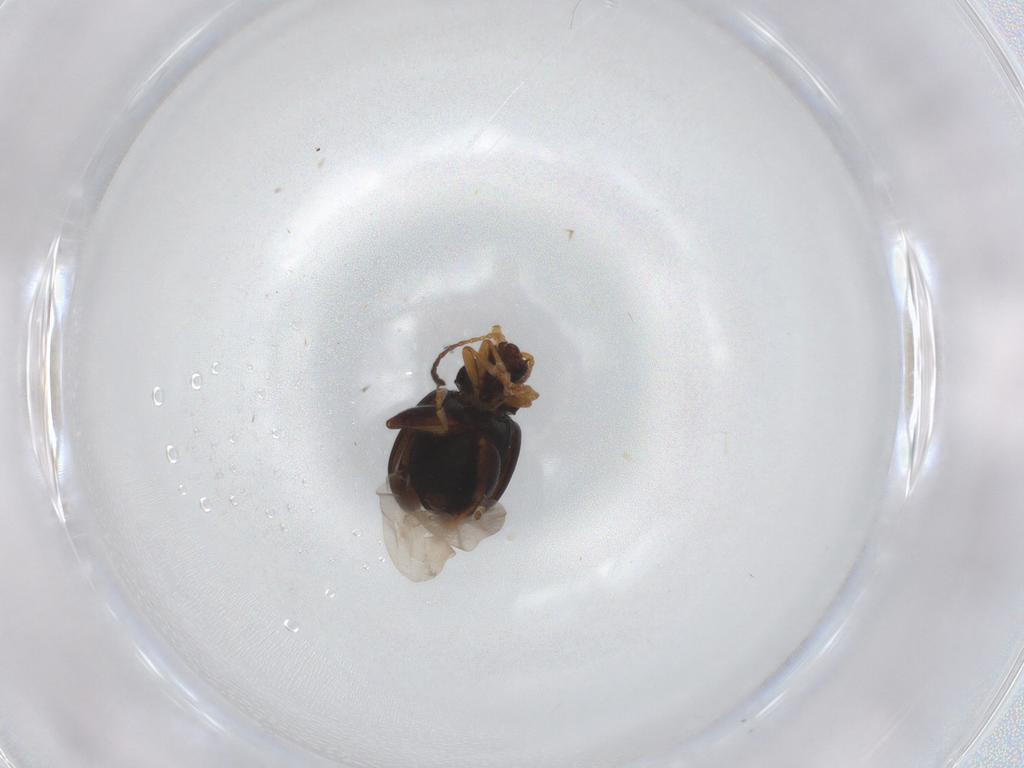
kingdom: Animalia
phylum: Arthropoda
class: Insecta
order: Coleoptera
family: Chrysomelidae
